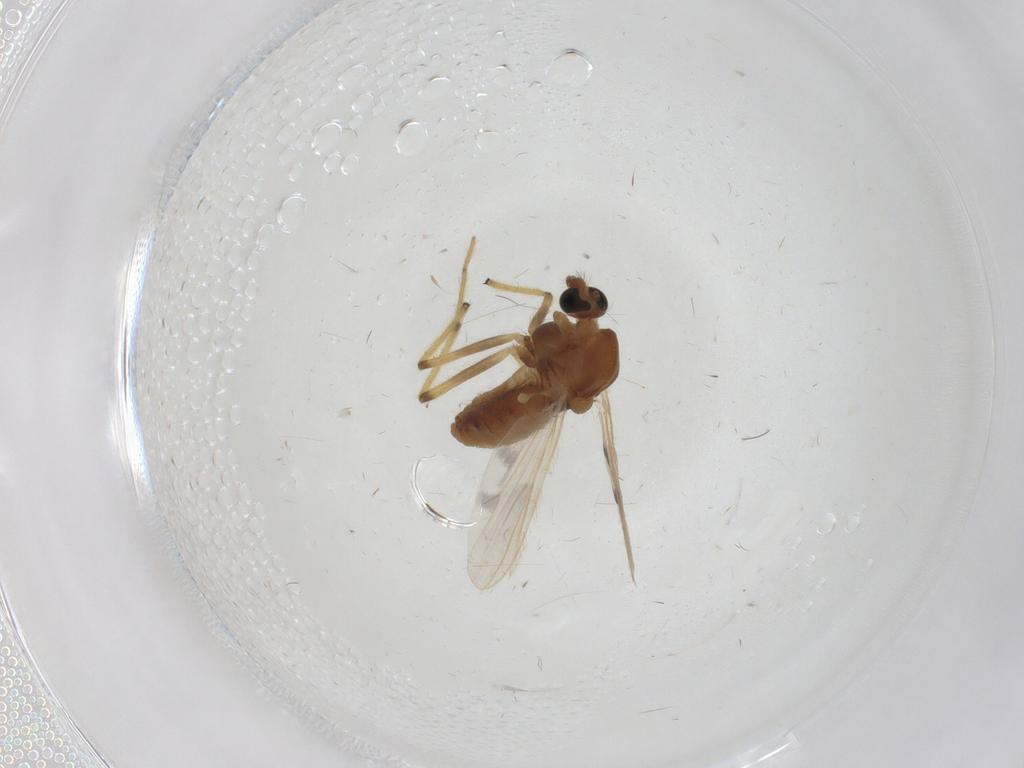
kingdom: Animalia
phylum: Arthropoda
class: Insecta
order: Diptera
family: Chironomidae
